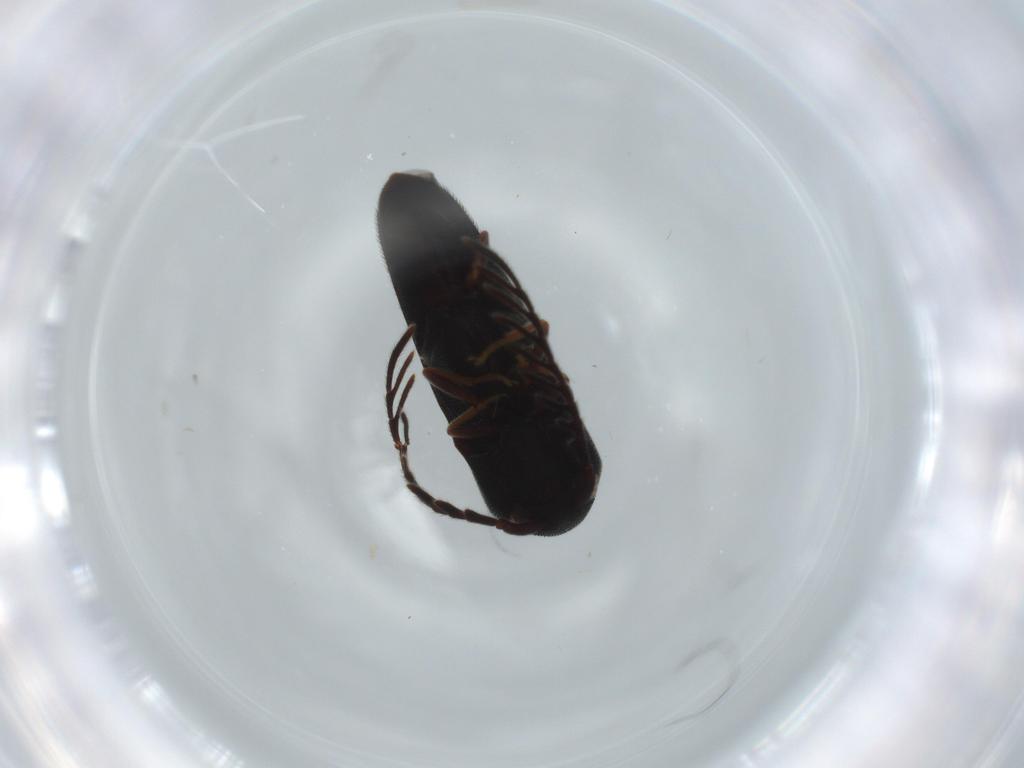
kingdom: Animalia
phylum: Arthropoda
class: Insecta
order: Coleoptera
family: Chrysomelidae
